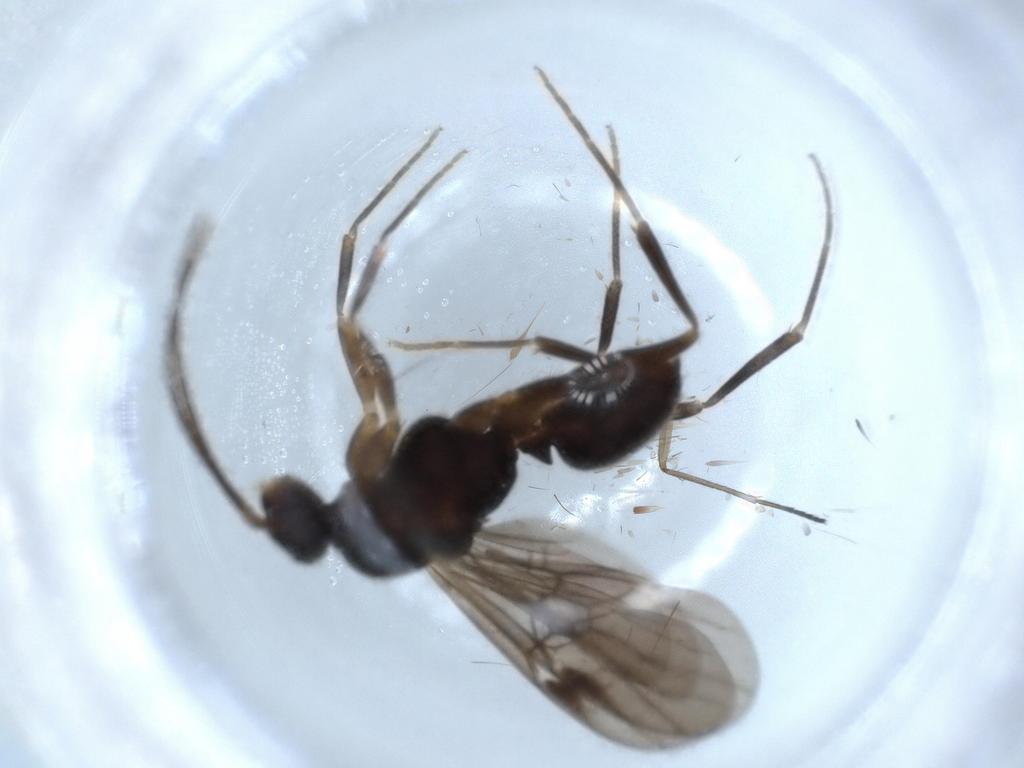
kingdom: Animalia
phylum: Arthropoda
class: Insecta
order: Hymenoptera
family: Formicidae
